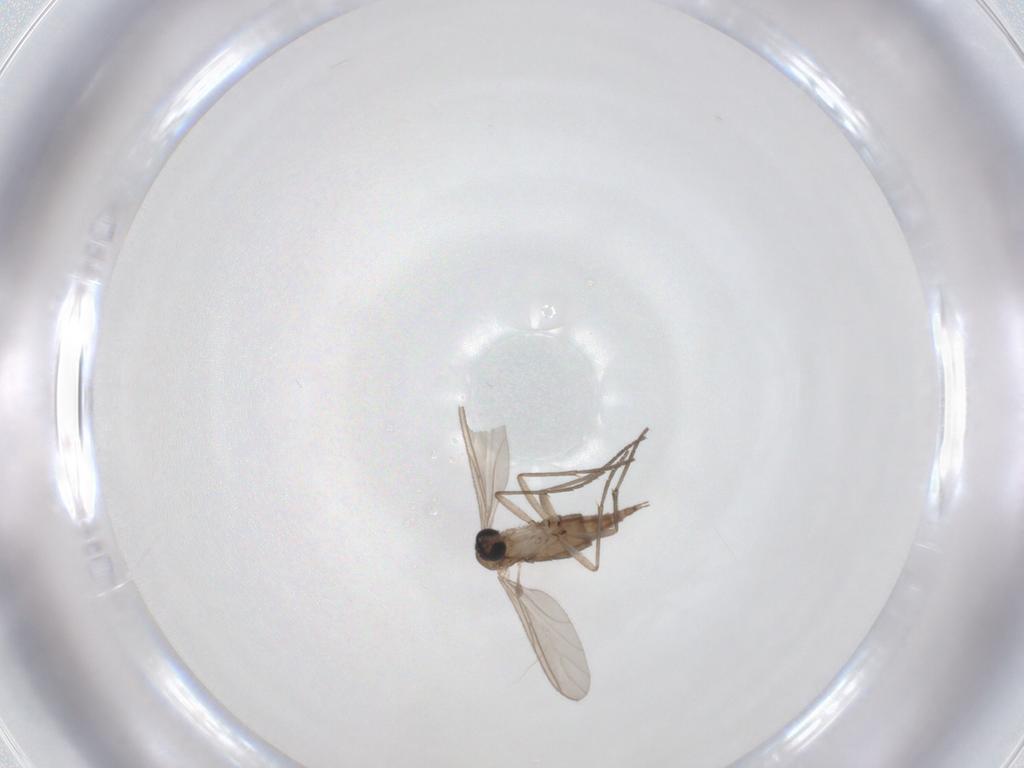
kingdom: Animalia
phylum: Arthropoda
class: Insecta
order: Diptera
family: Sciaridae
